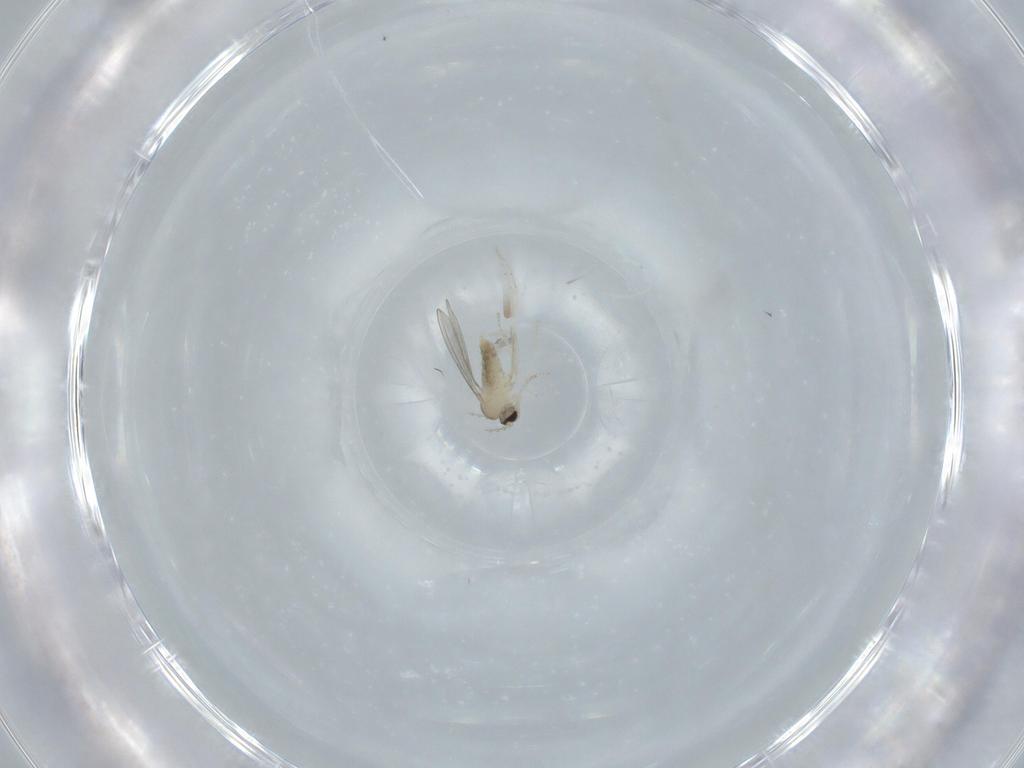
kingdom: Animalia
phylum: Arthropoda
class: Insecta
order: Diptera
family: Cecidomyiidae
